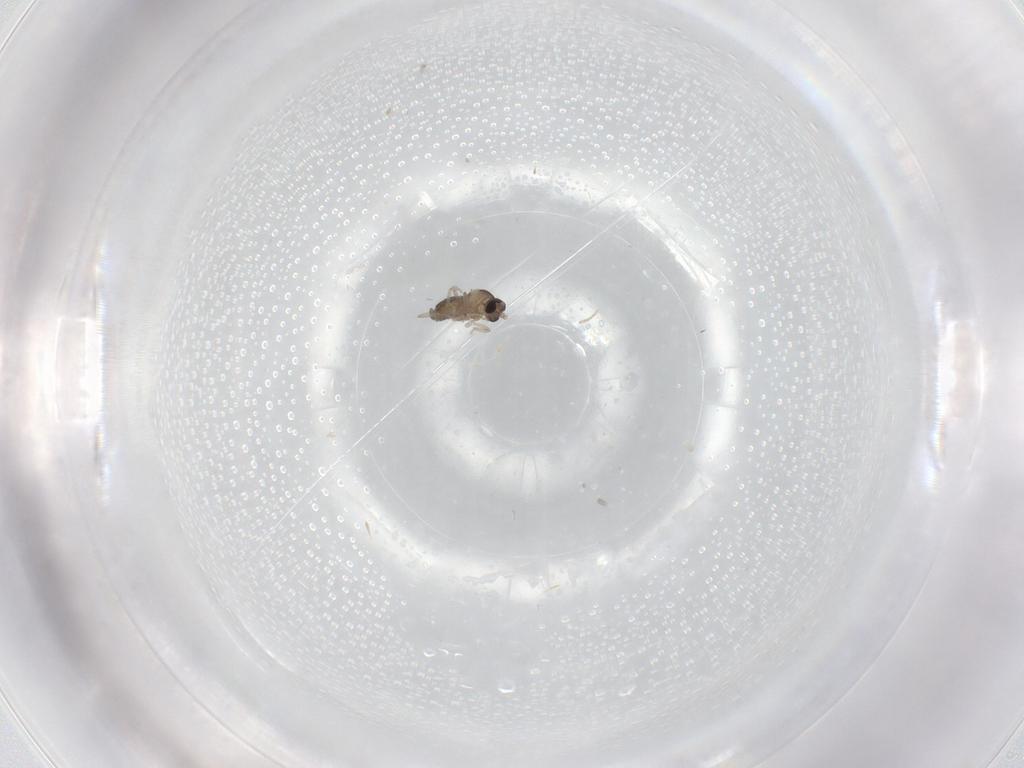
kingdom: Animalia
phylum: Arthropoda
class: Insecta
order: Diptera
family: Cecidomyiidae
